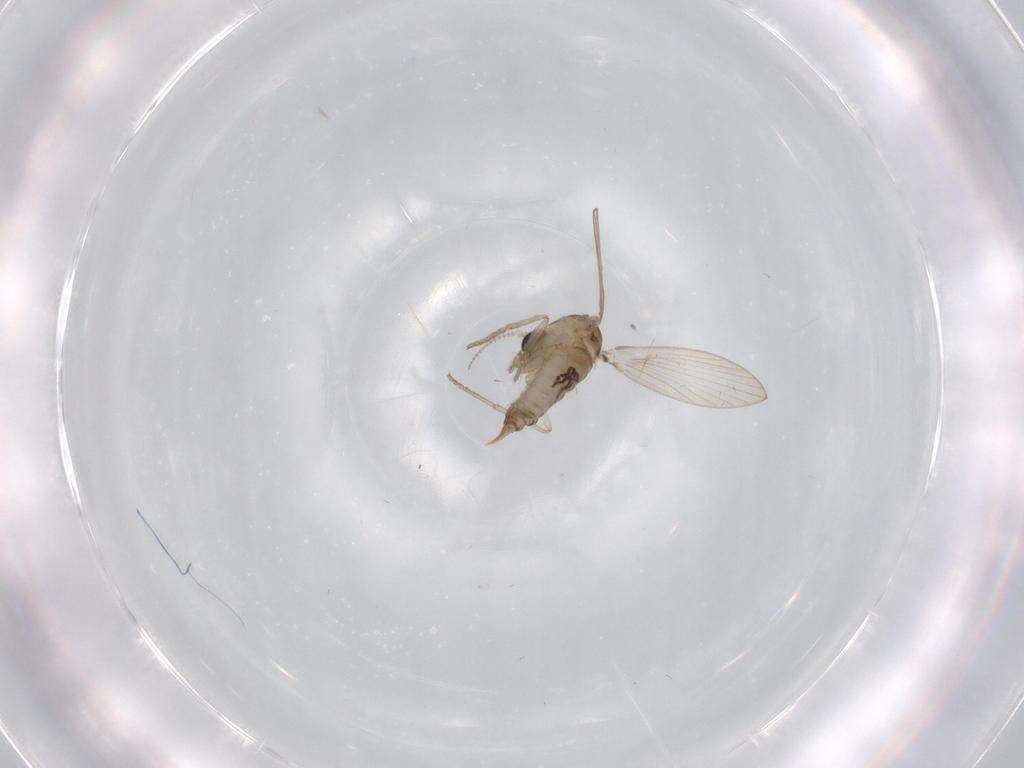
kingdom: Animalia
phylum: Arthropoda
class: Insecta
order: Diptera
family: Psychodidae
